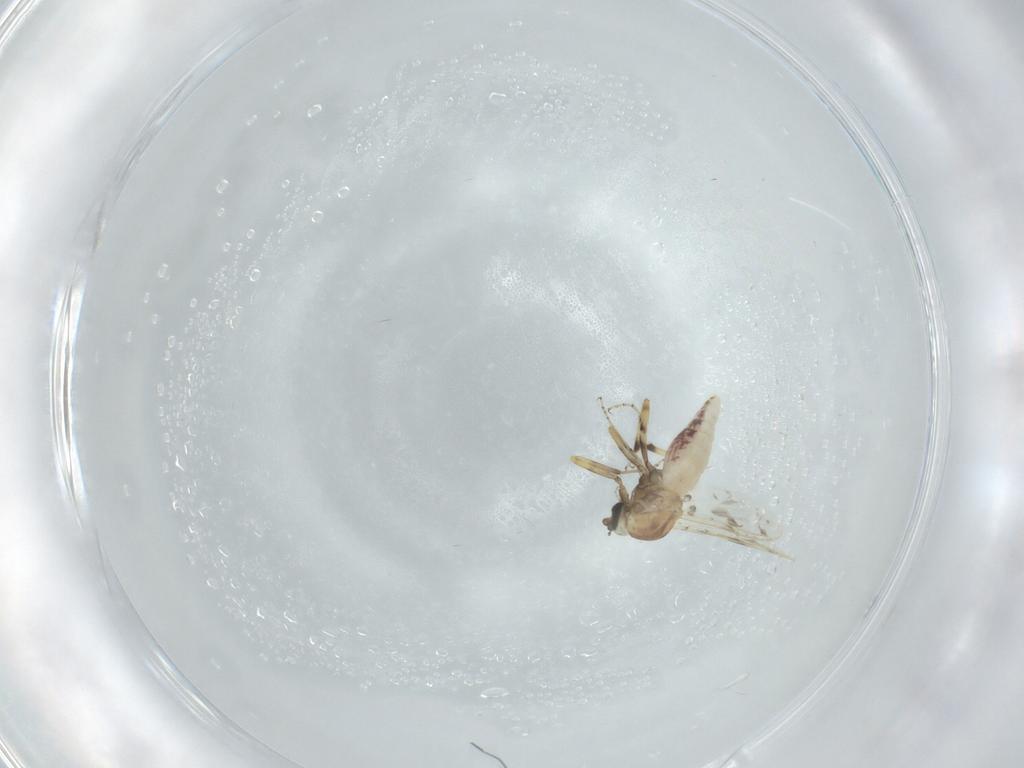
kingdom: Animalia
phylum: Arthropoda
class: Insecta
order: Diptera
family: Ceratopogonidae
